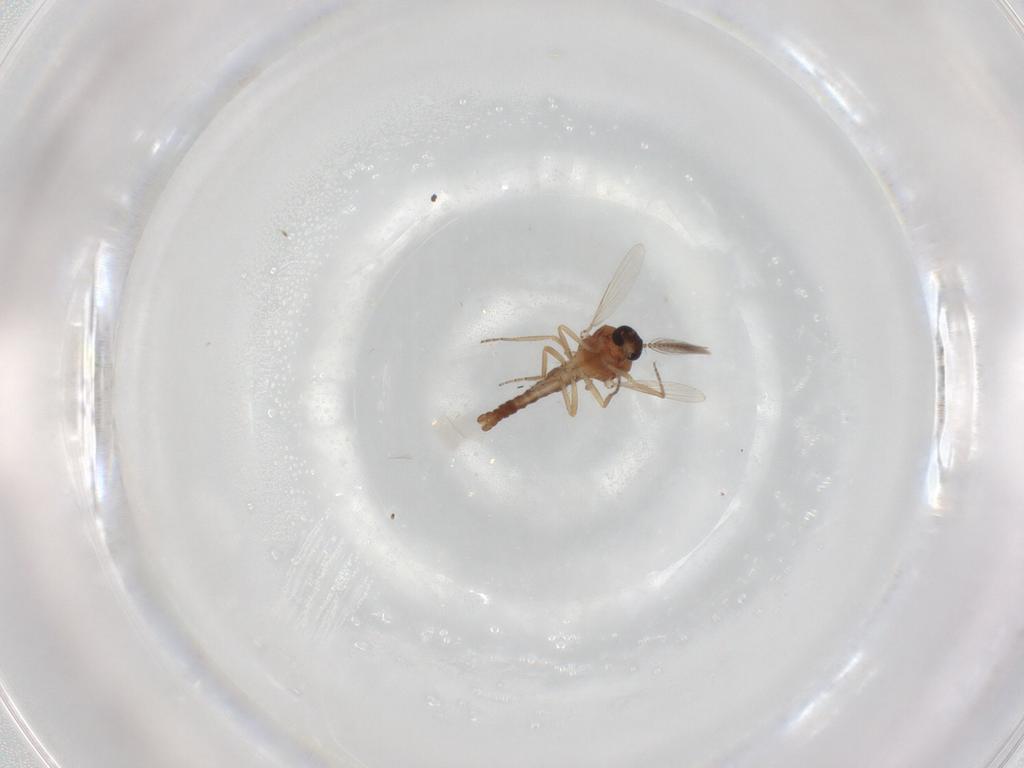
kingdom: Animalia
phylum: Arthropoda
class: Insecta
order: Diptera
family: Ceratopogonidae
